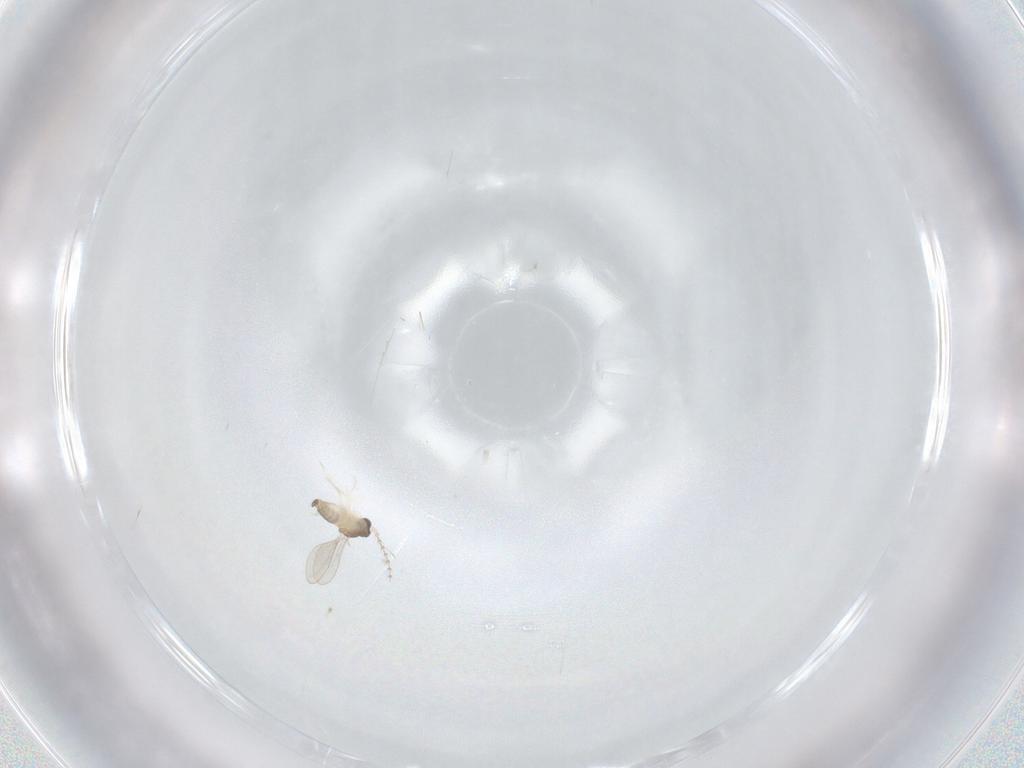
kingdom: Animalia
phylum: Arthropoda
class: Insecta
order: Diptera
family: Cecidomyiidae
